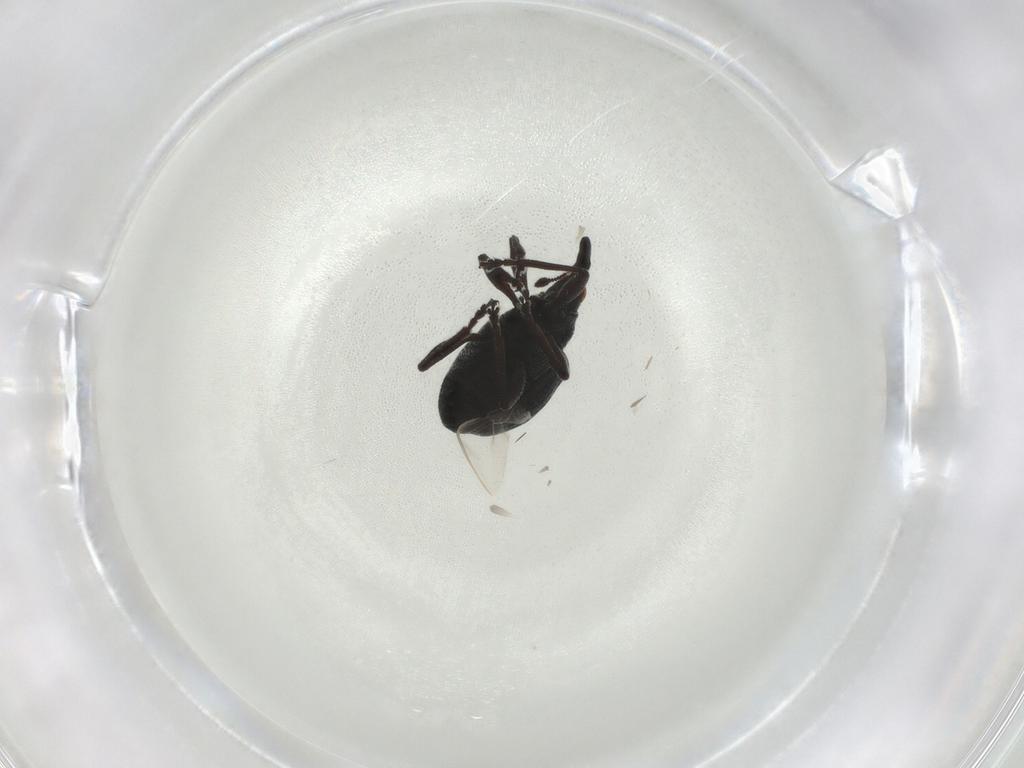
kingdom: Animalia
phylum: Arthropoda
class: Insecta
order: Coleoptera
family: Brentidae
